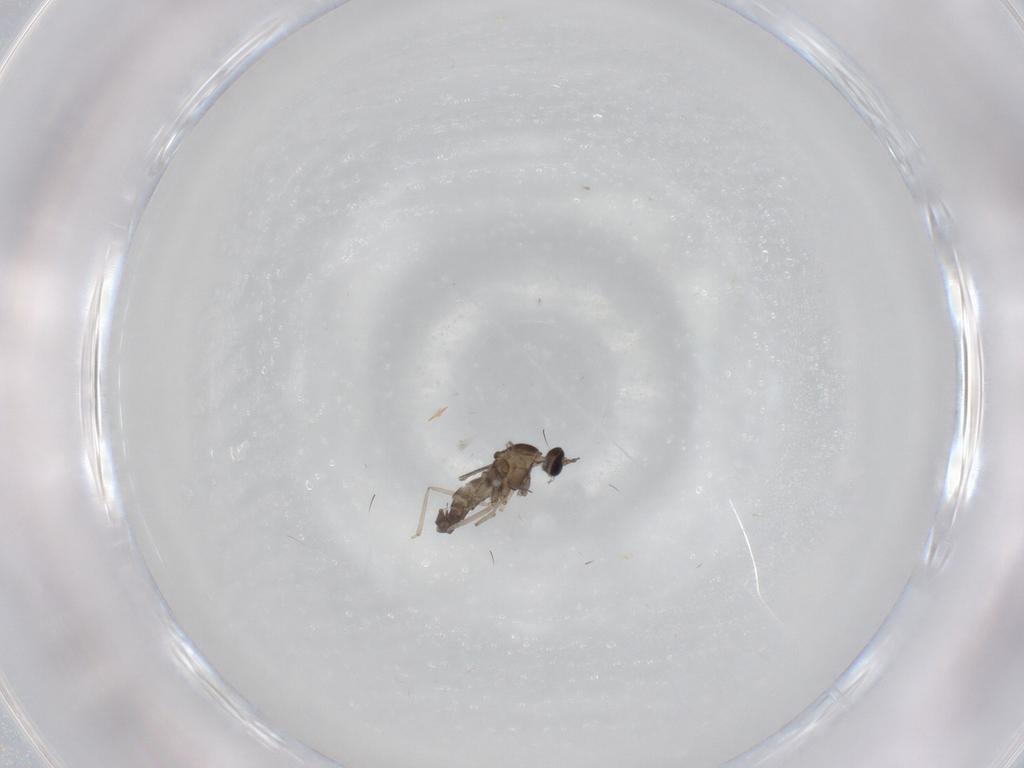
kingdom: Animalia
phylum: Arthropoda
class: Insecta
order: Diptera
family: Cecidomyiidae
